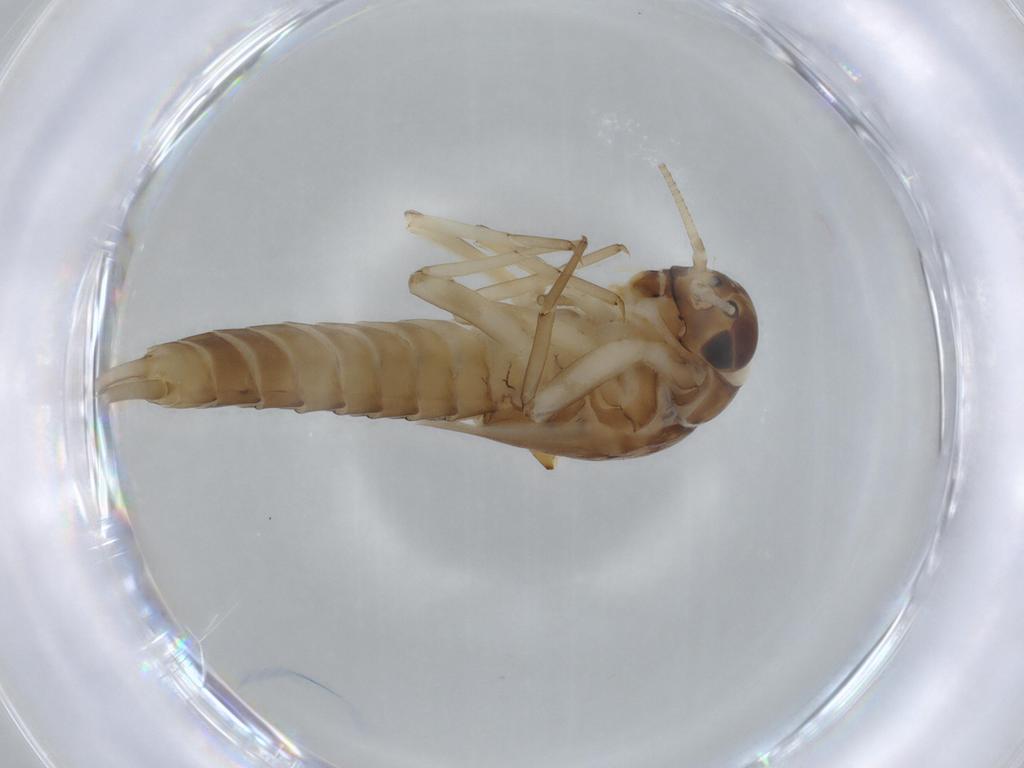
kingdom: Animalia
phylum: Arthropoda
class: Insecta
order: Ephemeroptera
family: Ephemerellidae
